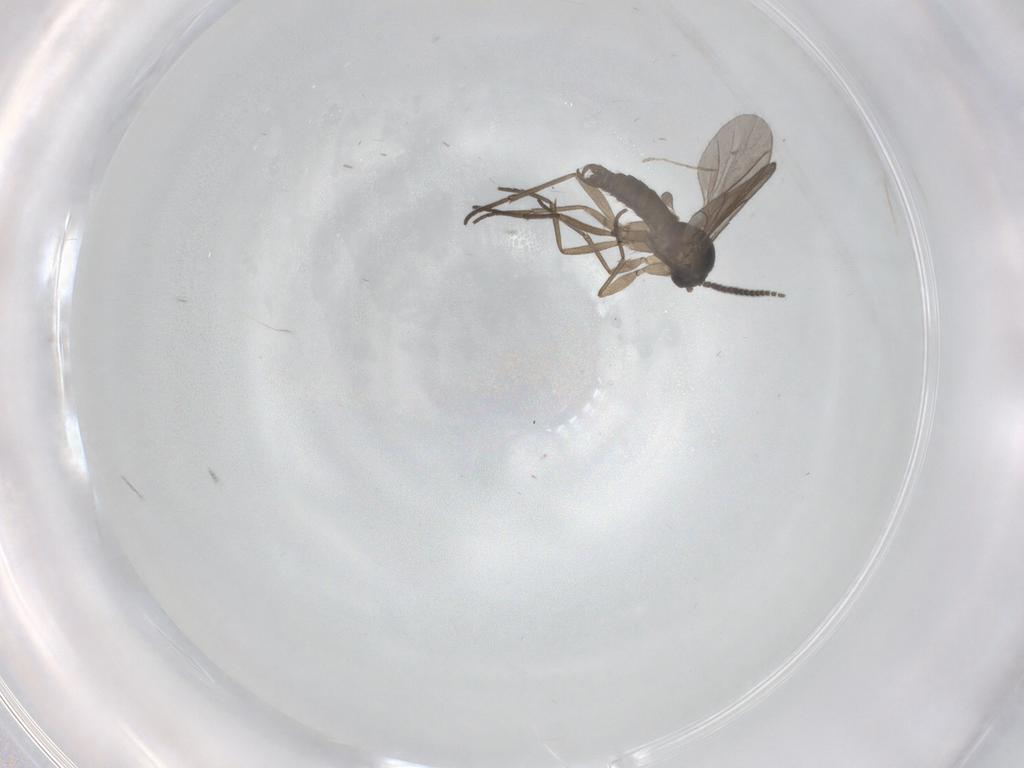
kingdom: Animalia
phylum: Arthropoda
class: Insecta
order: Diptera
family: Sciaridae
